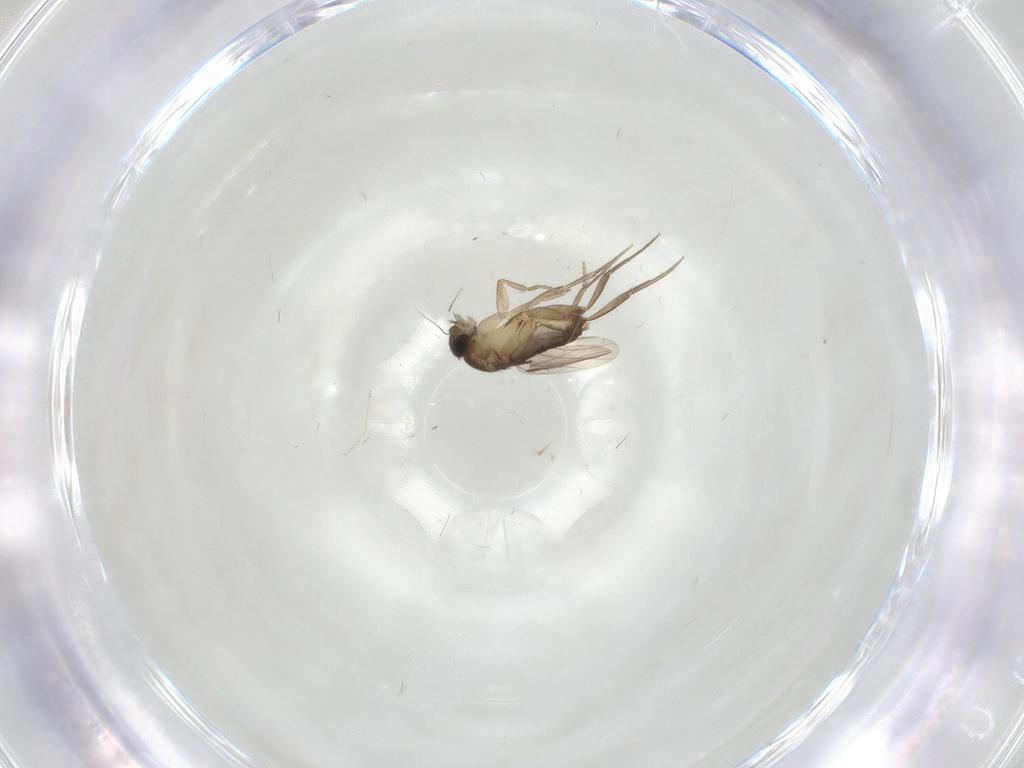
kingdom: Animalia
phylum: Arthropoda
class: Insecta
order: Diptera
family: Cecidomyiidae
